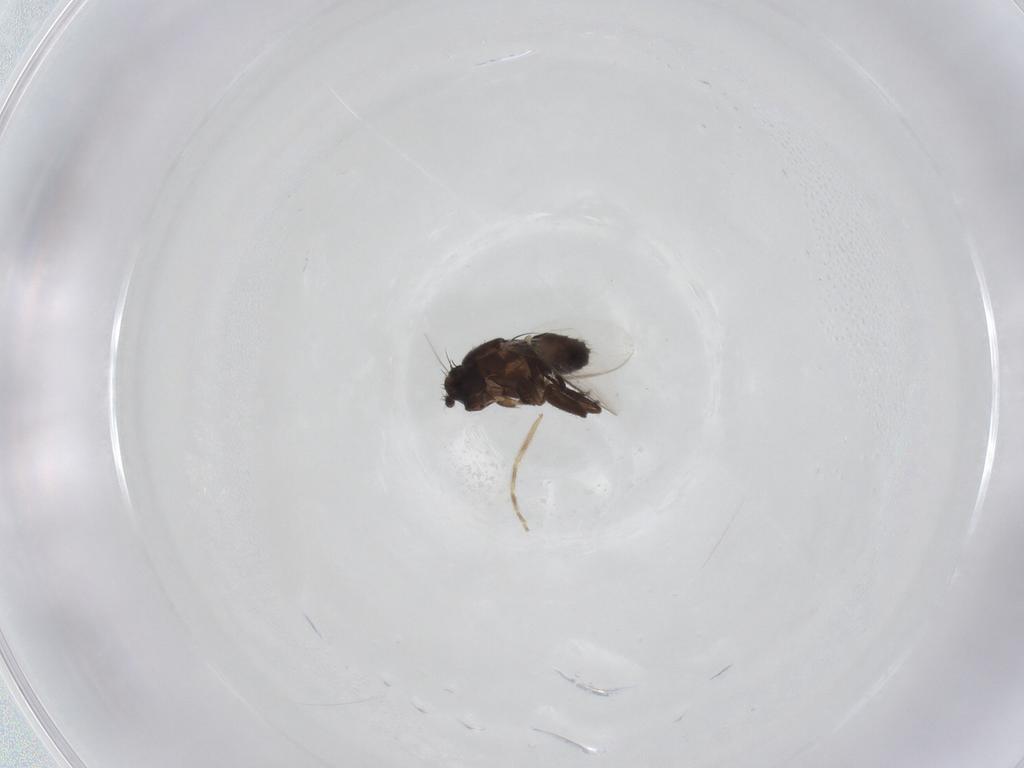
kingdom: Animalia
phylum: Arthropoda
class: Insecta
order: Diptera
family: Sphaeroceridae
